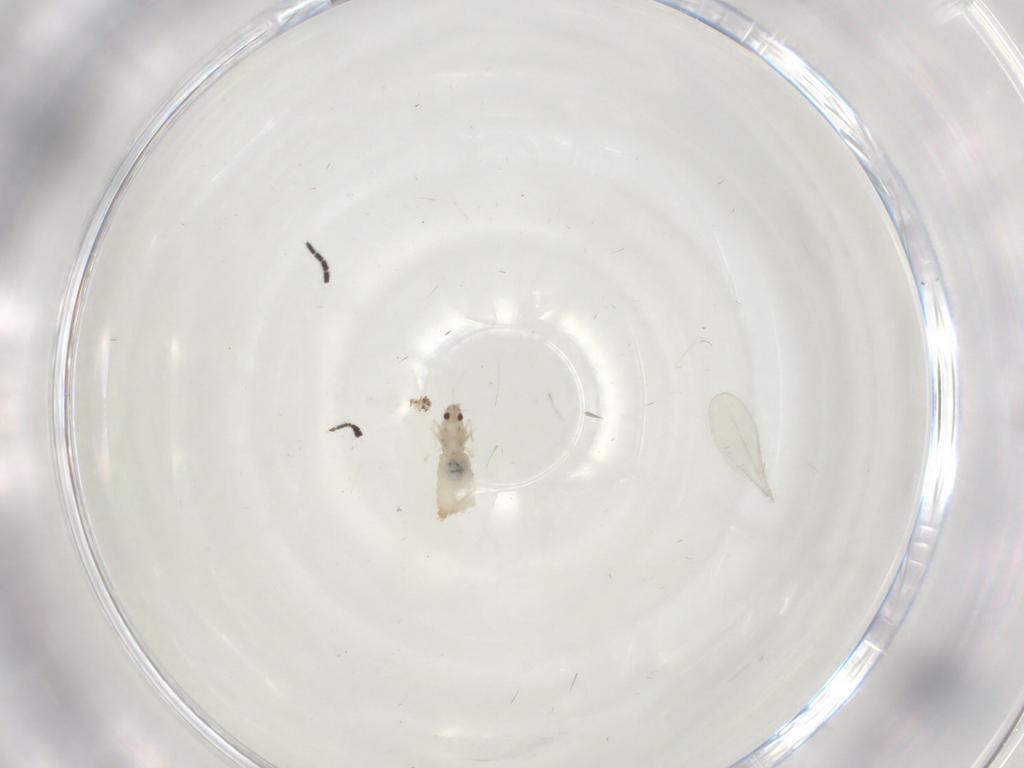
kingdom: Animalia
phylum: Arthropoda
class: Insecta
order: Diptera
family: Cecidomyiidae
